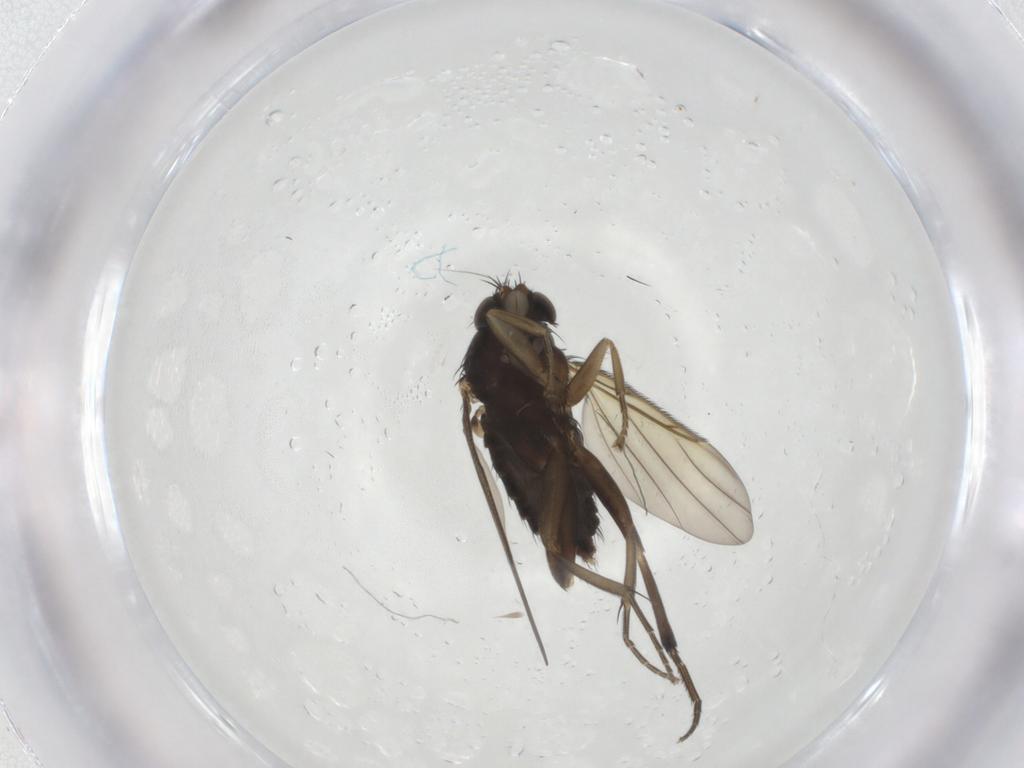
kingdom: Animalia
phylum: Arthropoda
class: Insecta
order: Diptera
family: Phoridae
